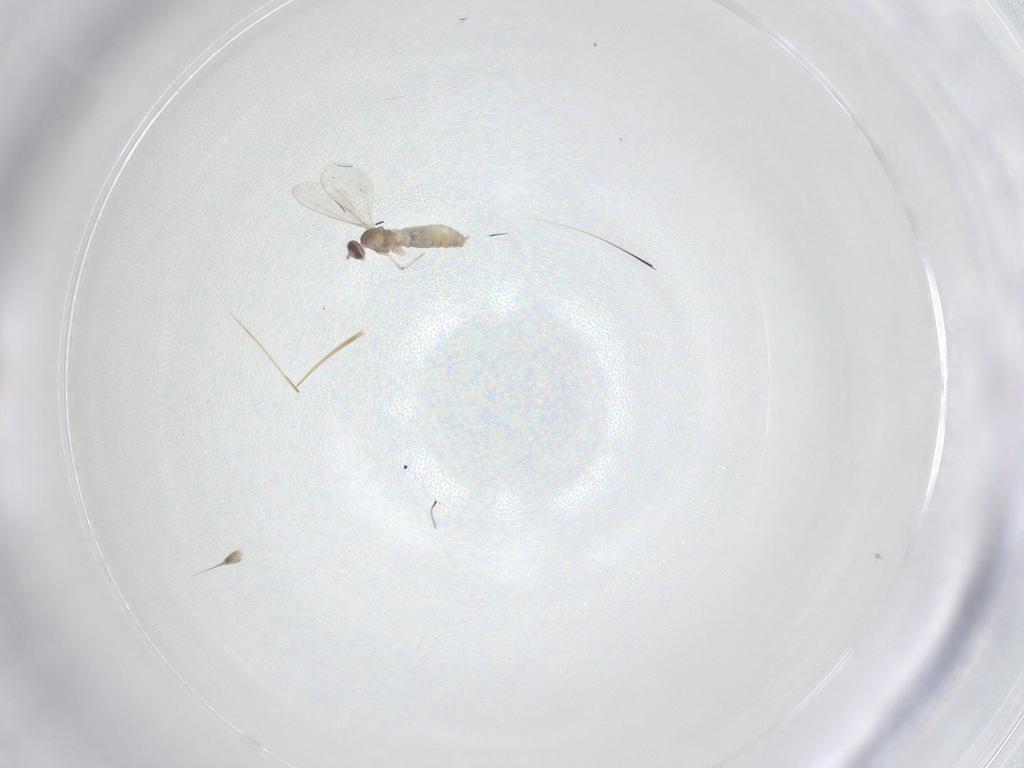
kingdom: Animalia
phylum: Arthropoda
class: Insecta
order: Diptera
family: Cecidomyiidae
